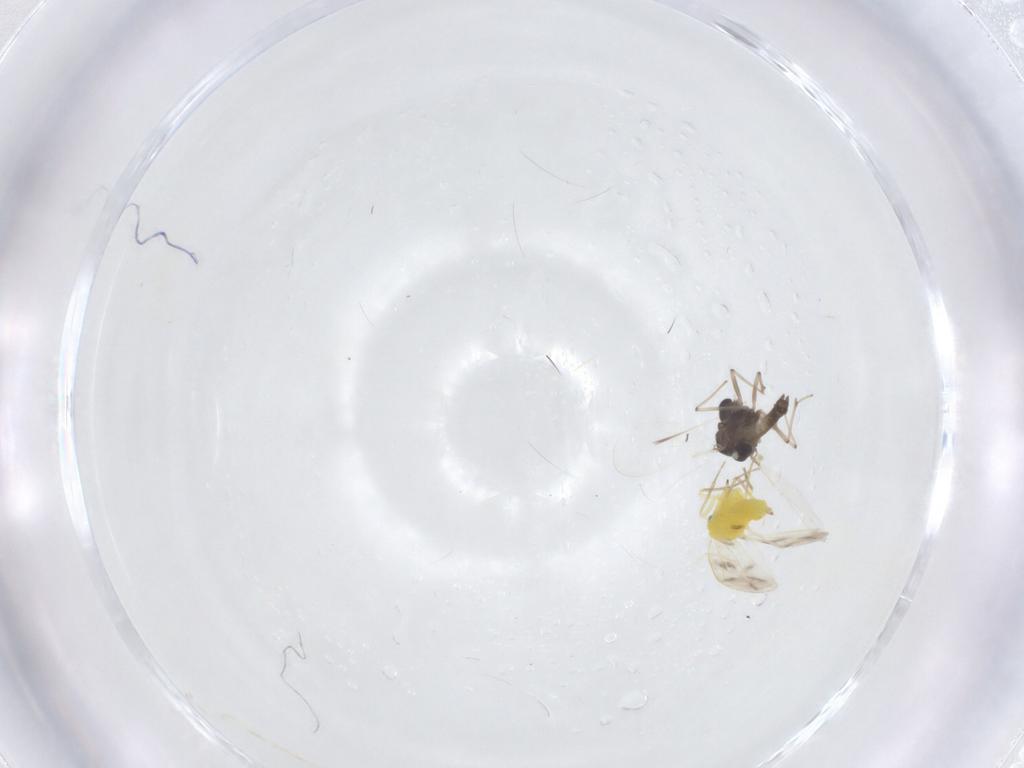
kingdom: Animalia
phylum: Arthropoda
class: Insecta
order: Diptera
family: Chironomidae
